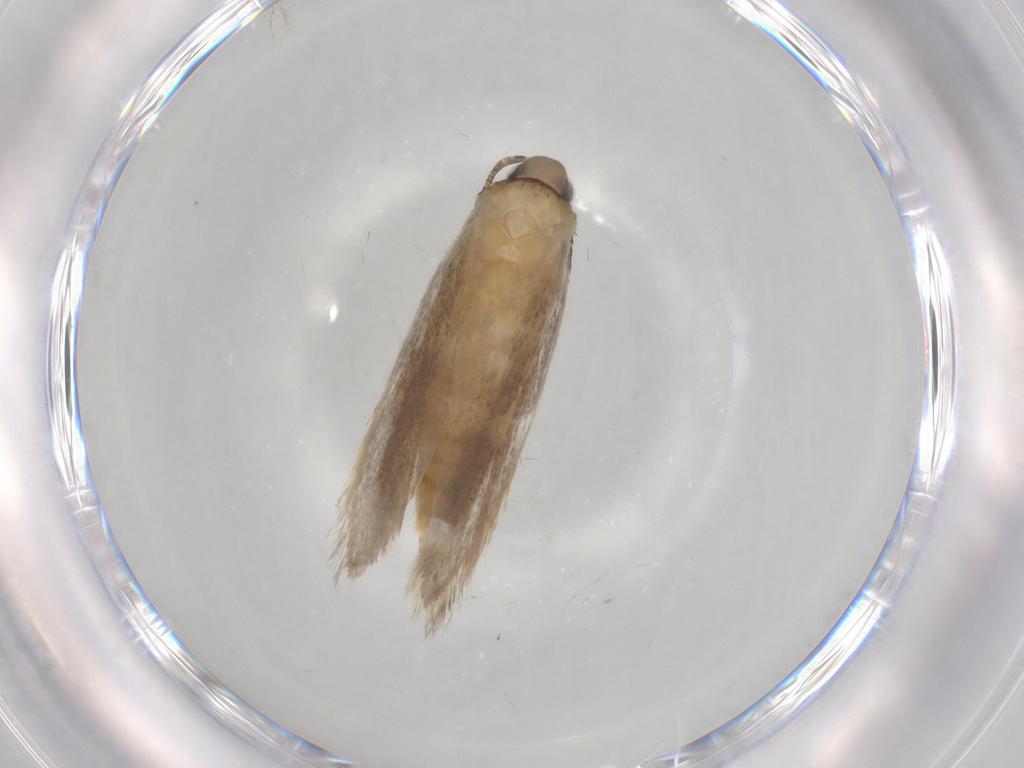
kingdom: Animalia
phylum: Arthropoda
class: Insecta
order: Lepidoptera
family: Autostichidae
